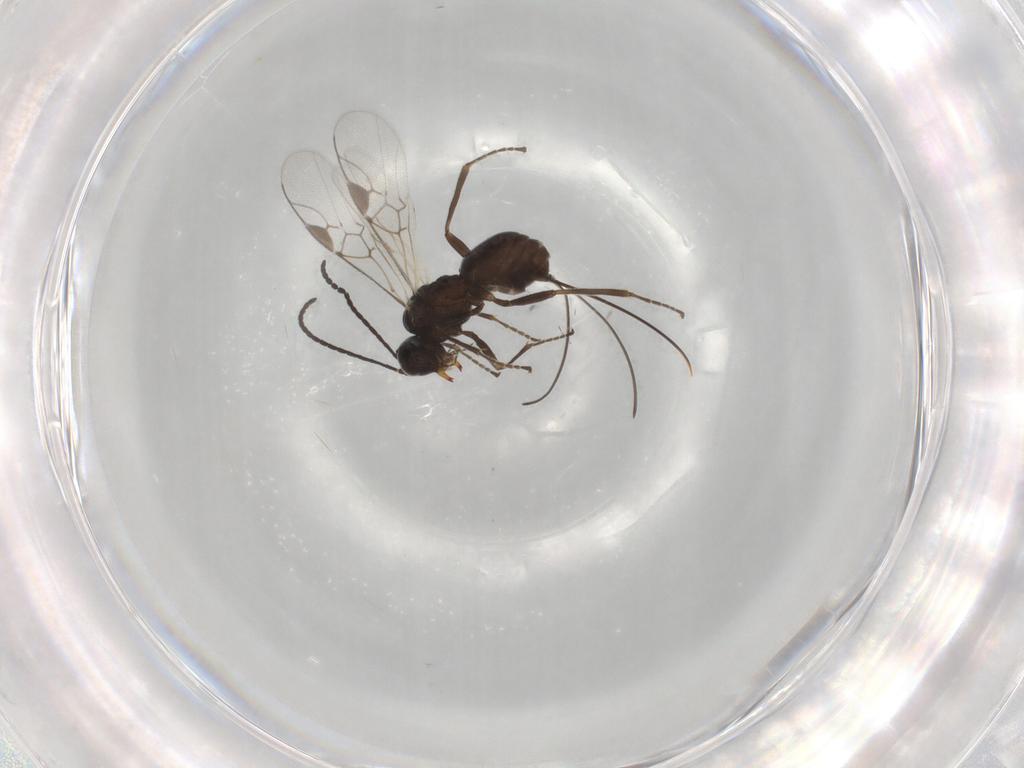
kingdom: Animalia
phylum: Arthropoda
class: Insecta
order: Hymenoptera
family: Braconidae
